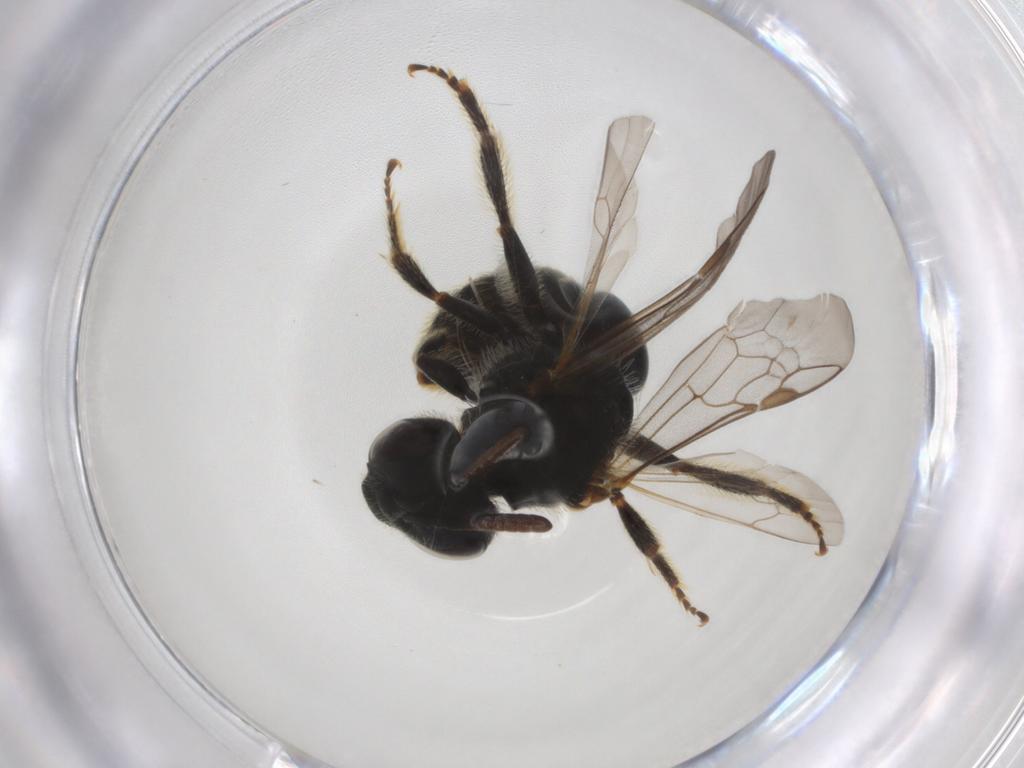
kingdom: Animalia
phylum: Arthropoda
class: Insecta
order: Hymenoptera
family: Halictidae
